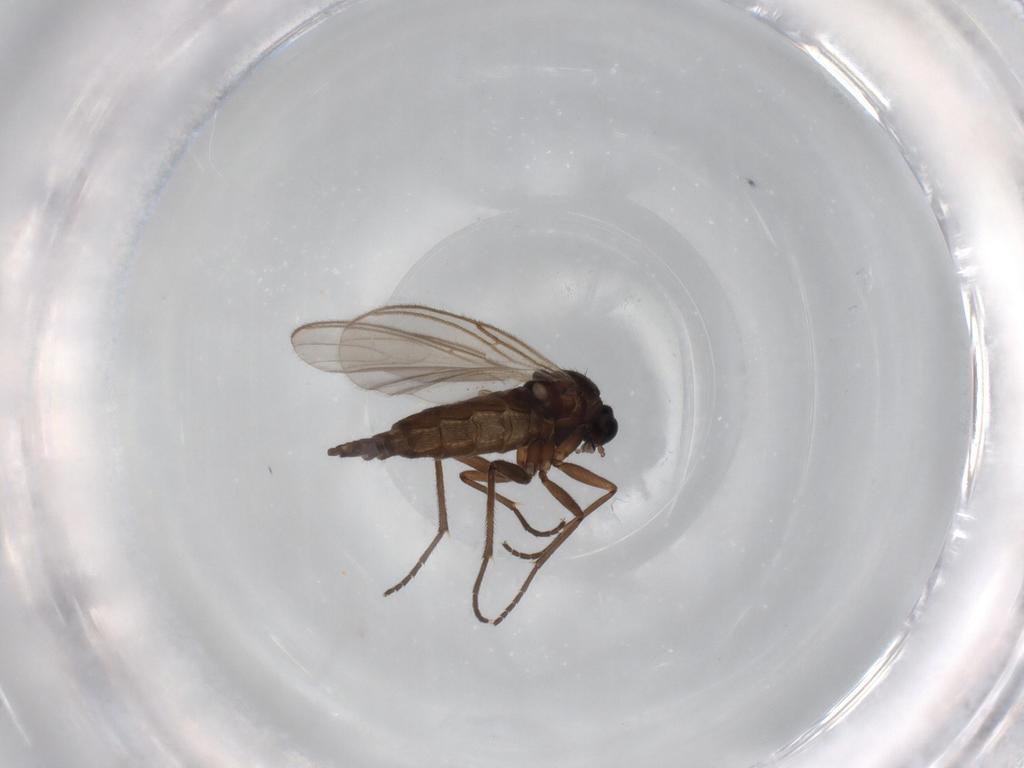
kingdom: Animalia
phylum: Arthropoda
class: Insecta
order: Diptera
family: Sciaridae
